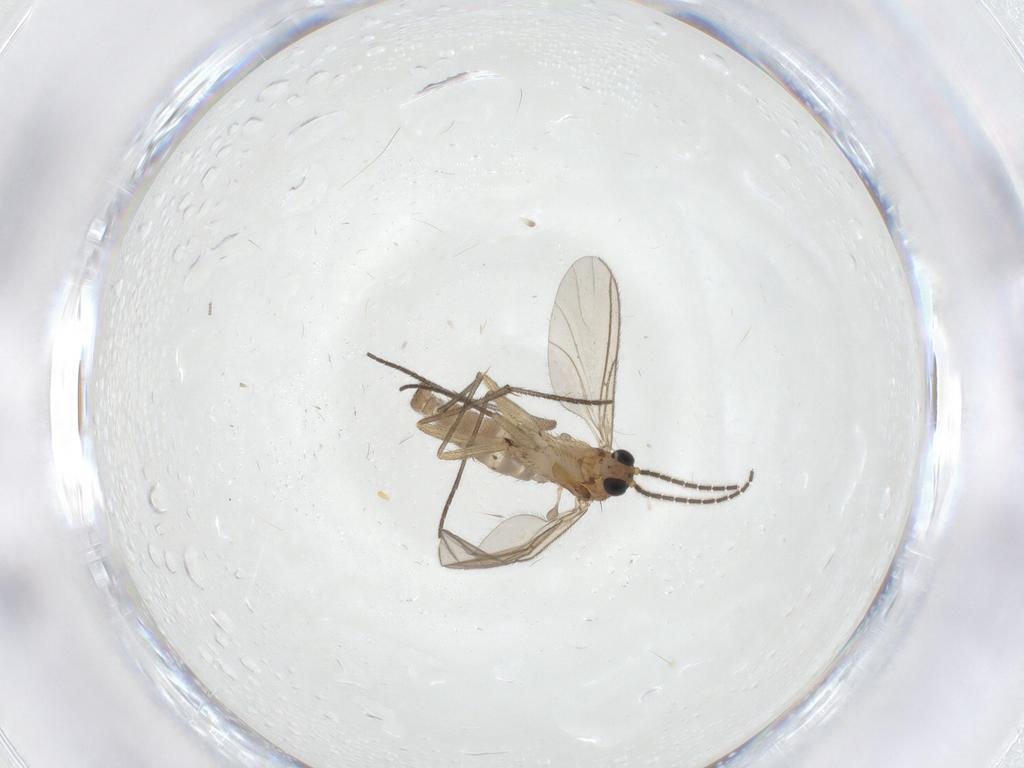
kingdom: Animalia
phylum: Arthropoda
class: Insecta
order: Diptera
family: Sciaridae
